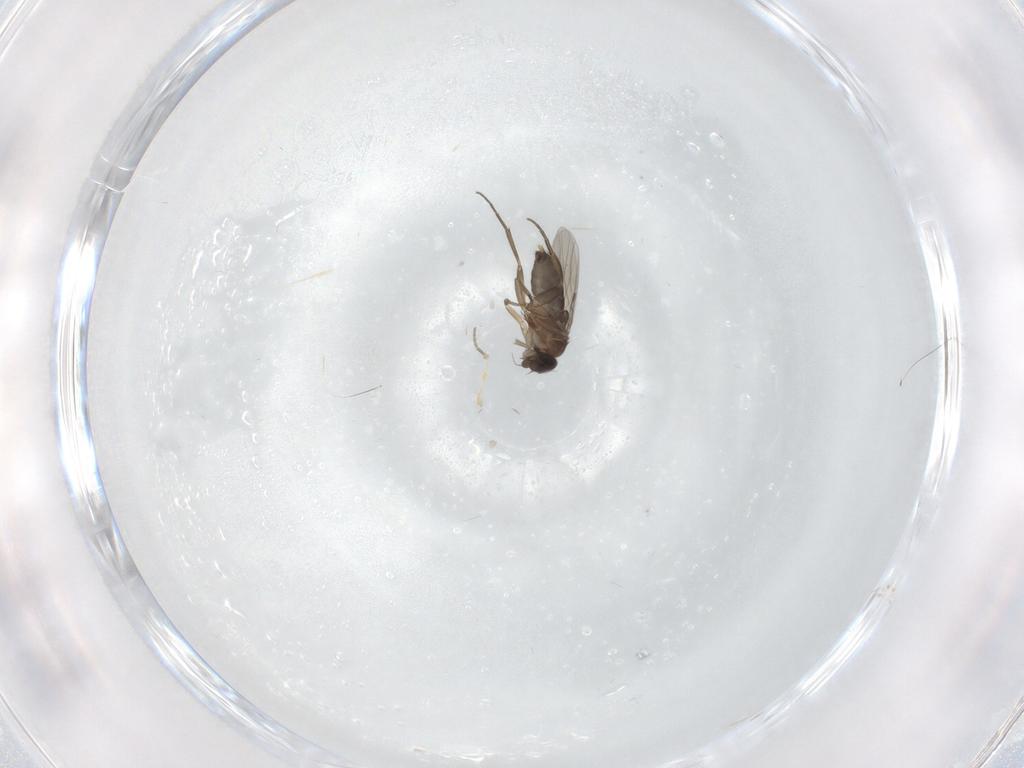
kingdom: Animalia
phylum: Arthropoda
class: Insecta
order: Diptera
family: Phoridae
